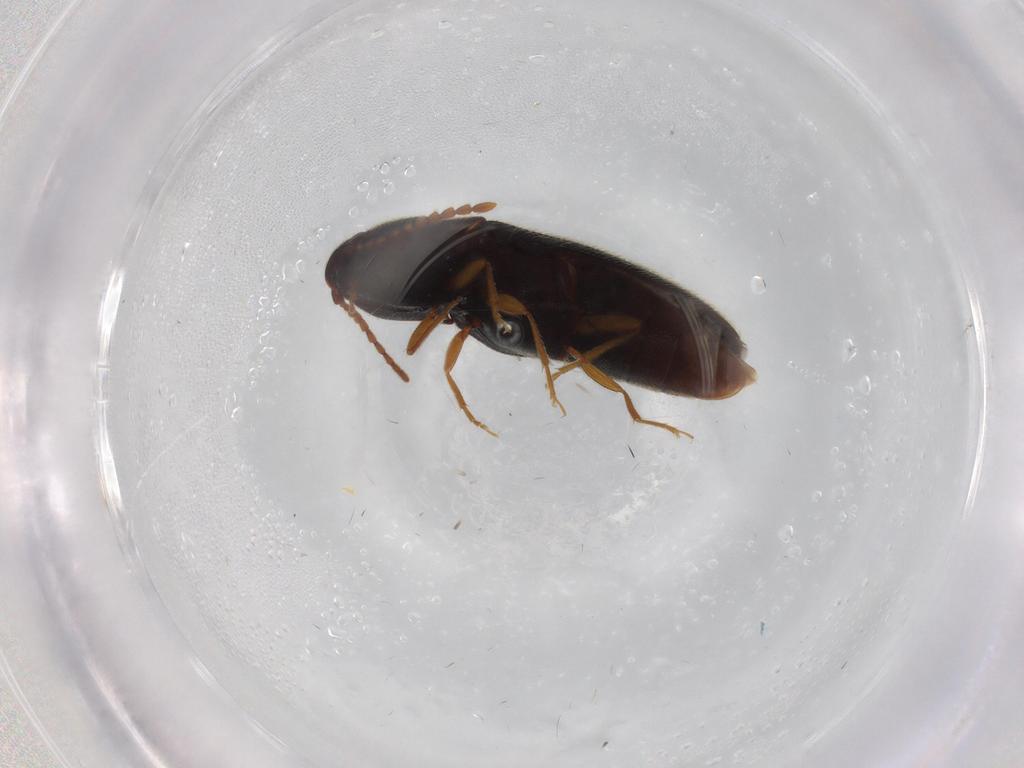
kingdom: Animalia
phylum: Arthropoda
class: Insecta
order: Coleoptera
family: Elateridae
